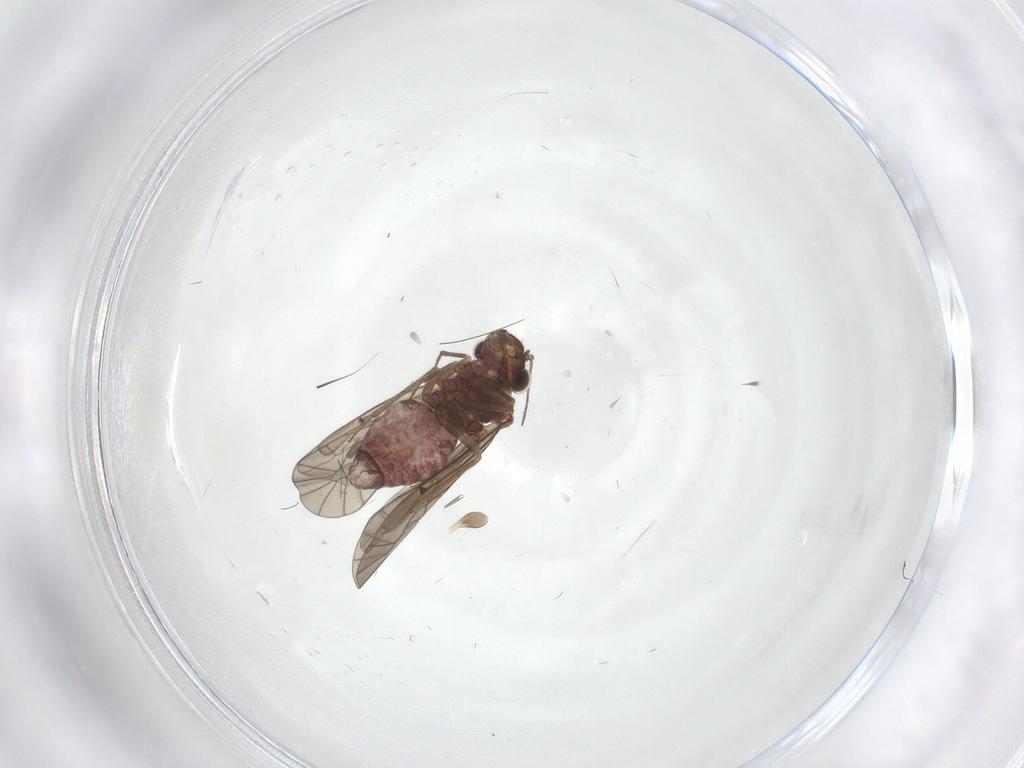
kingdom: Animalia
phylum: Arthropoda
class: Insecta
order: Psocodea
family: Lachesillidae
